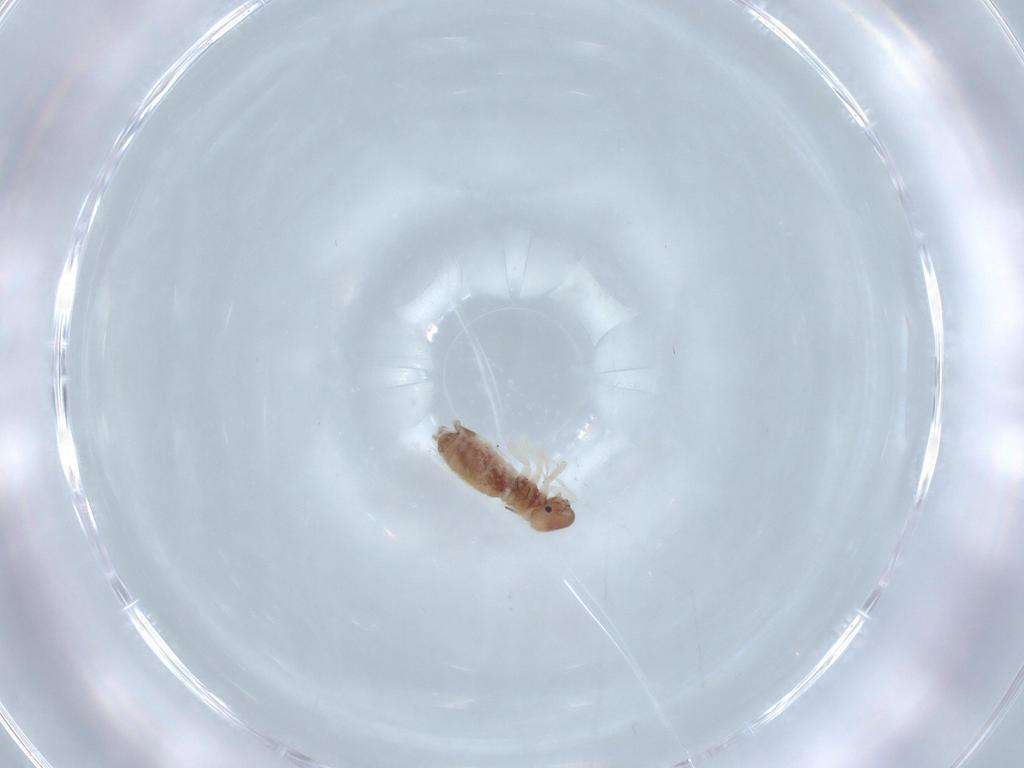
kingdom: Animalia
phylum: Arthropoda
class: Insecta
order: Psocodea
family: Archipsocidae
